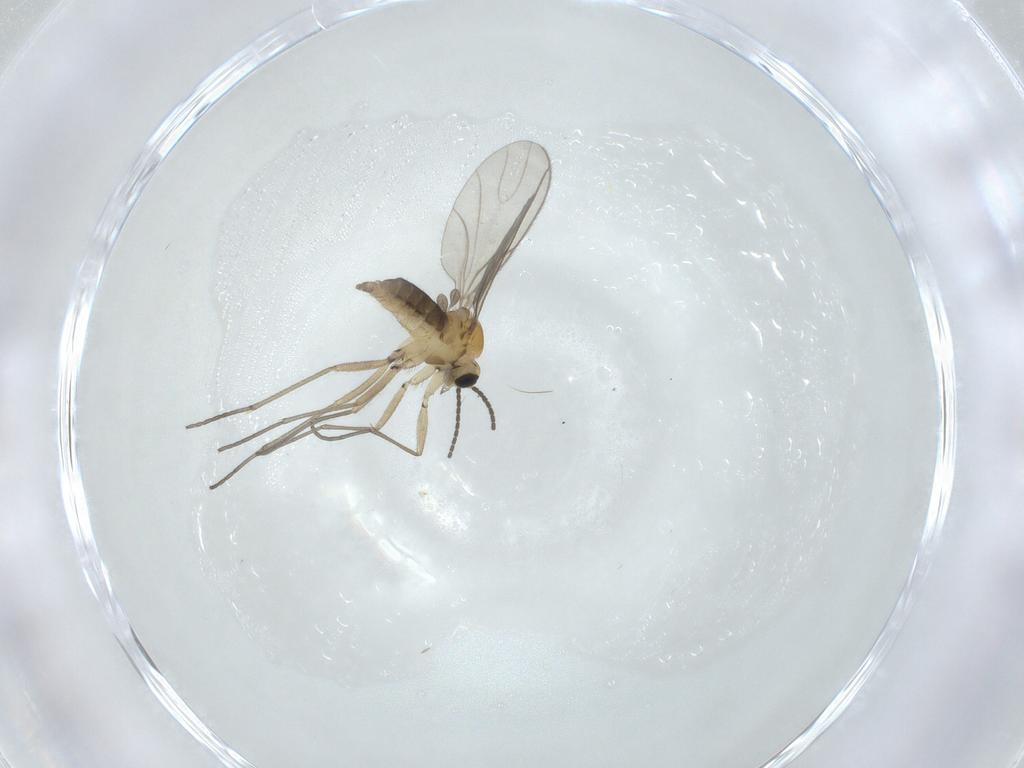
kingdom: Animalia
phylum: Arthropoda
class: Insecta
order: Diptera
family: Sciaridae
